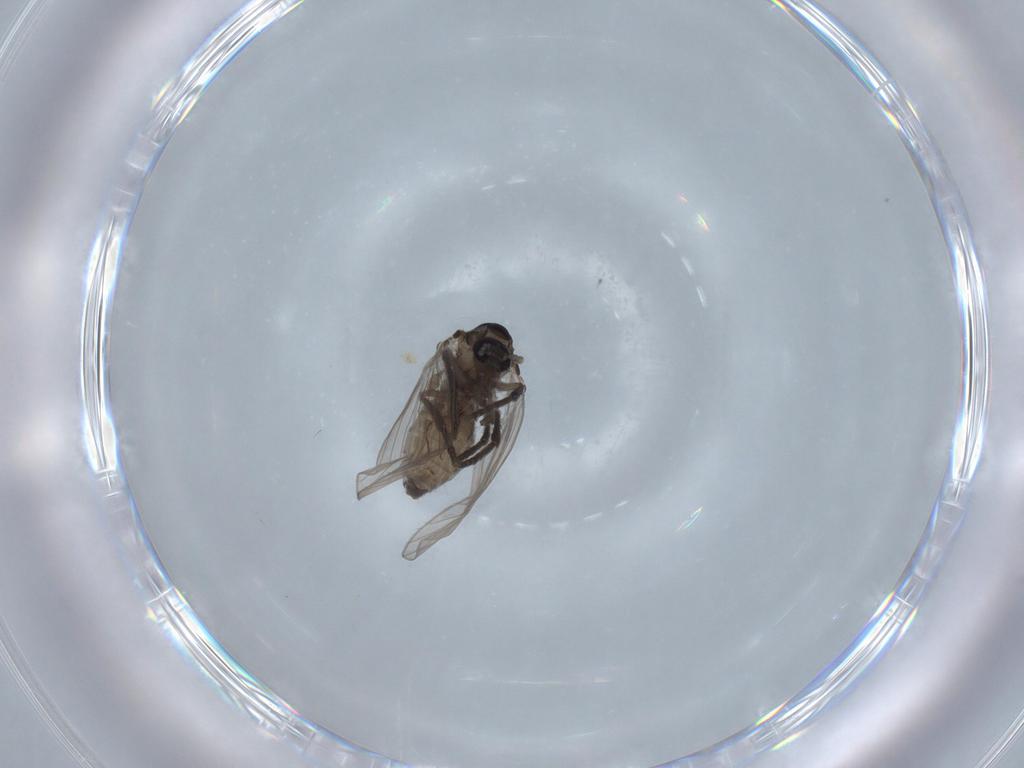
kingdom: Animalia
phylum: Arthropoda
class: Insecta
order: Diptera
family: Psychodidae
